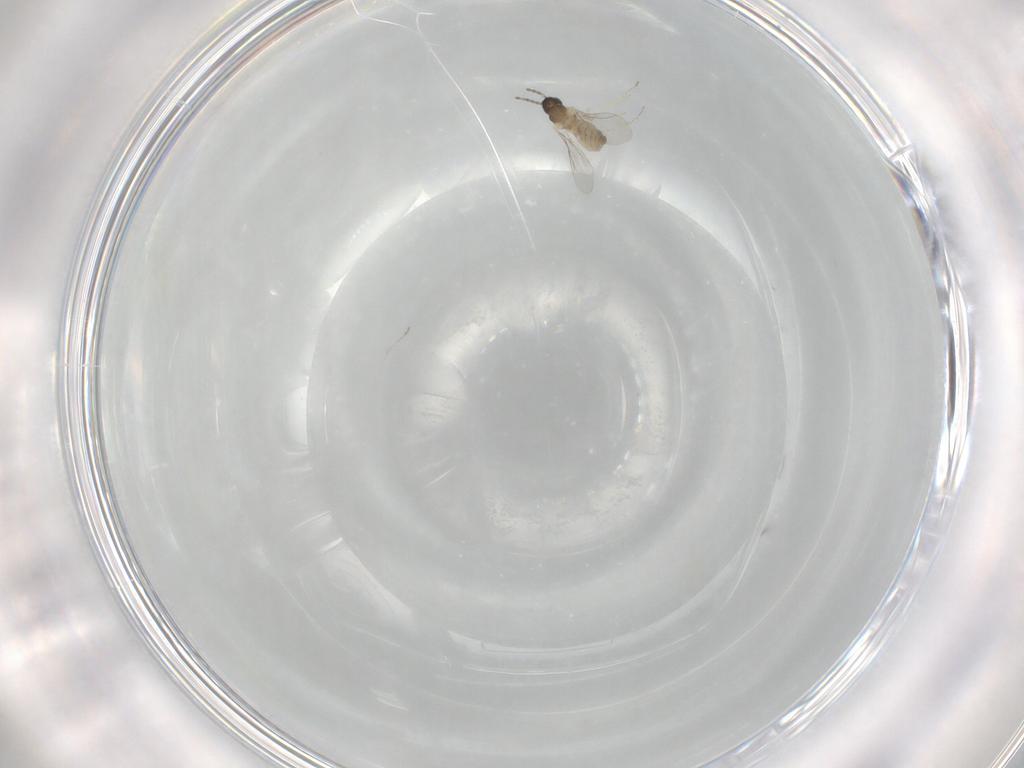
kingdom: Animalia
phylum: Arthropoda
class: Insecta
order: Diptera
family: Cecidomyiidae
